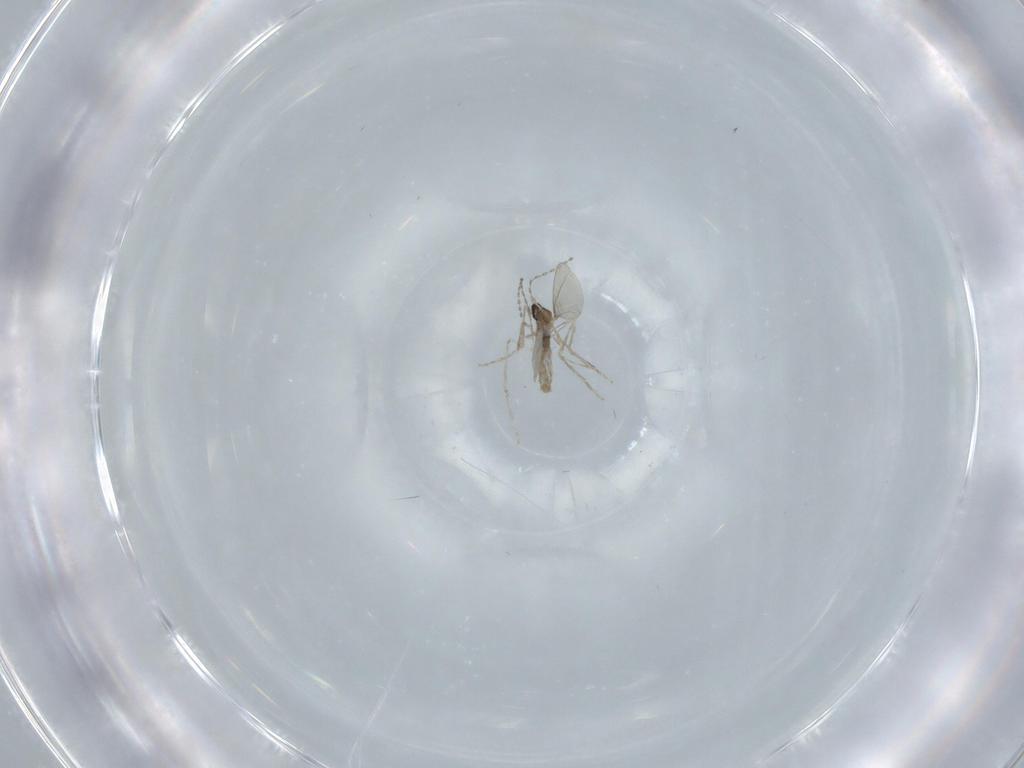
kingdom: Animalia
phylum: Arthropoda
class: Insecta
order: Diptera
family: Cecidomyiidae
